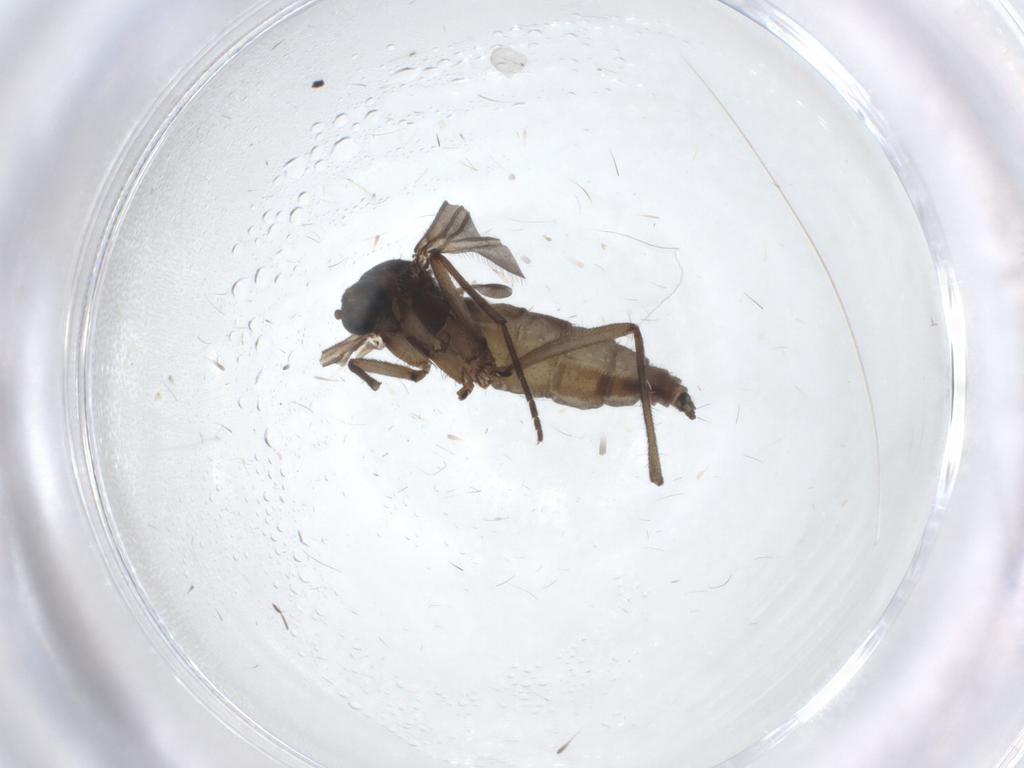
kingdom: Animalia
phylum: Arthropoda
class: Insecta
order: Diptera
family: Sciaridae
